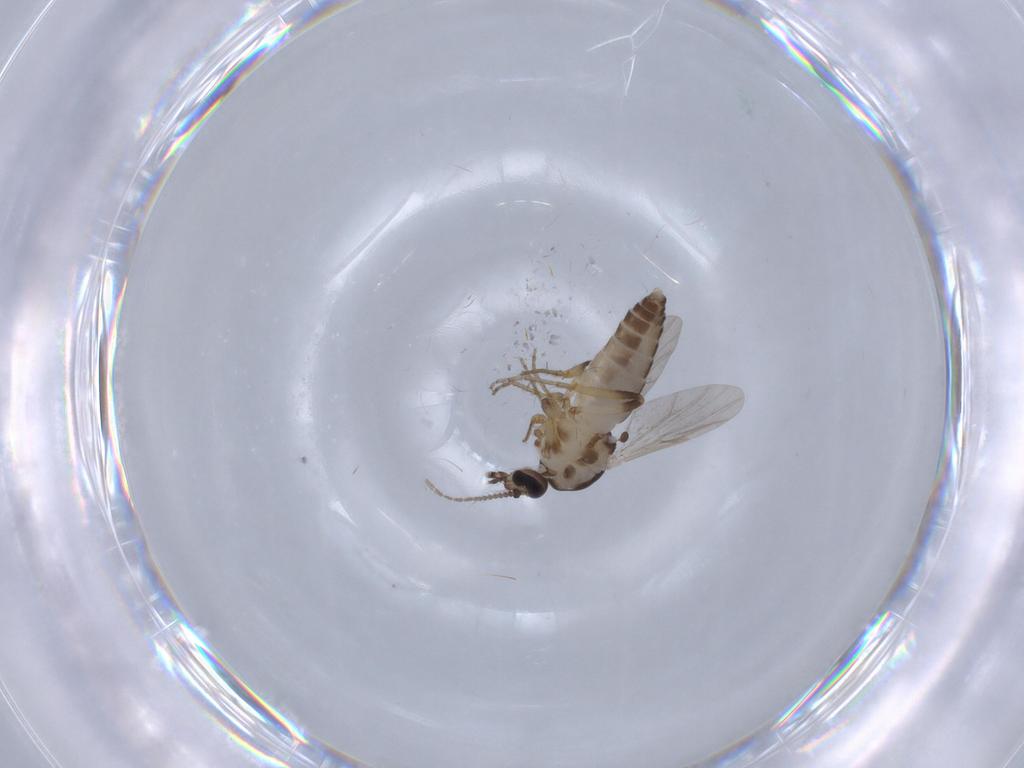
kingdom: Animalia
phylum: Arthropoda
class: Insecta
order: Diptera
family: Ceratopogonidae
